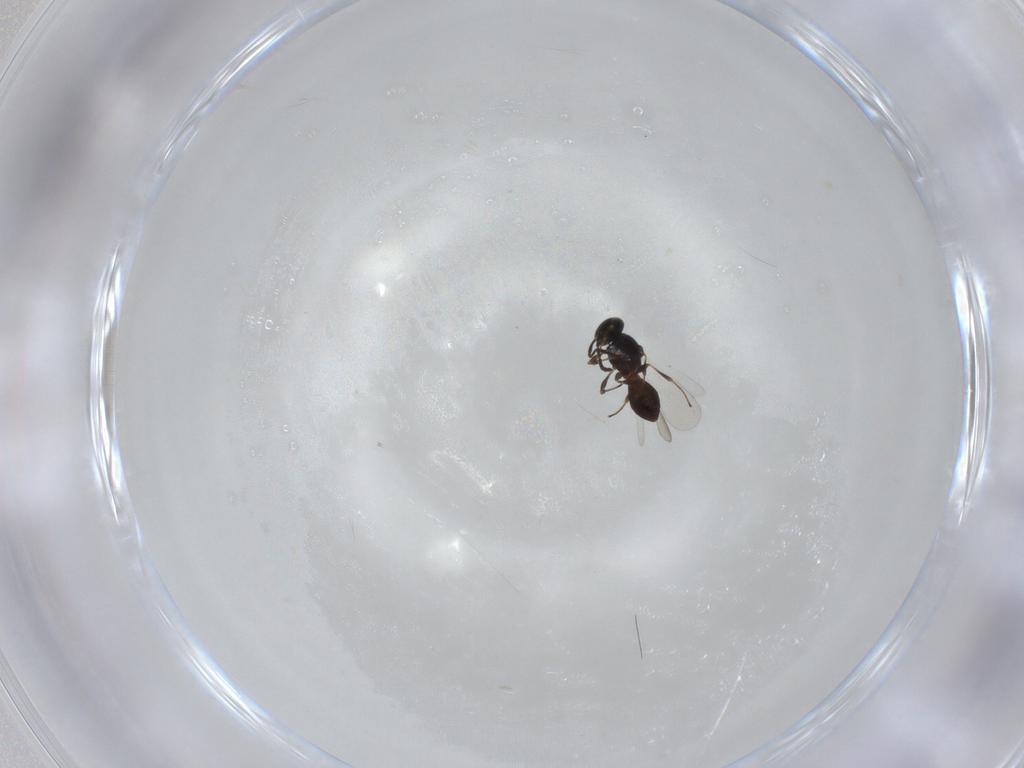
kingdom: Animalia
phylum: Arthropoda
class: Insecta
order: Hymenoptera
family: Platygastridae
